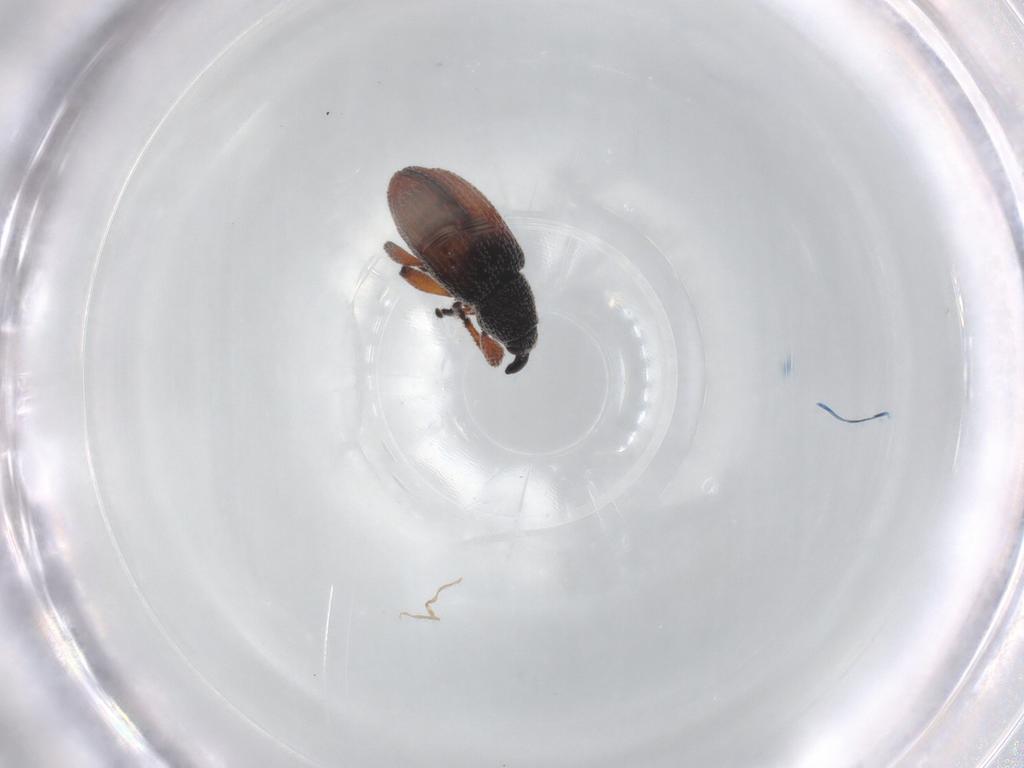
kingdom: Animalia
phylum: Arthropoda
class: Insecta
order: Coleoptera
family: Curculionidae
